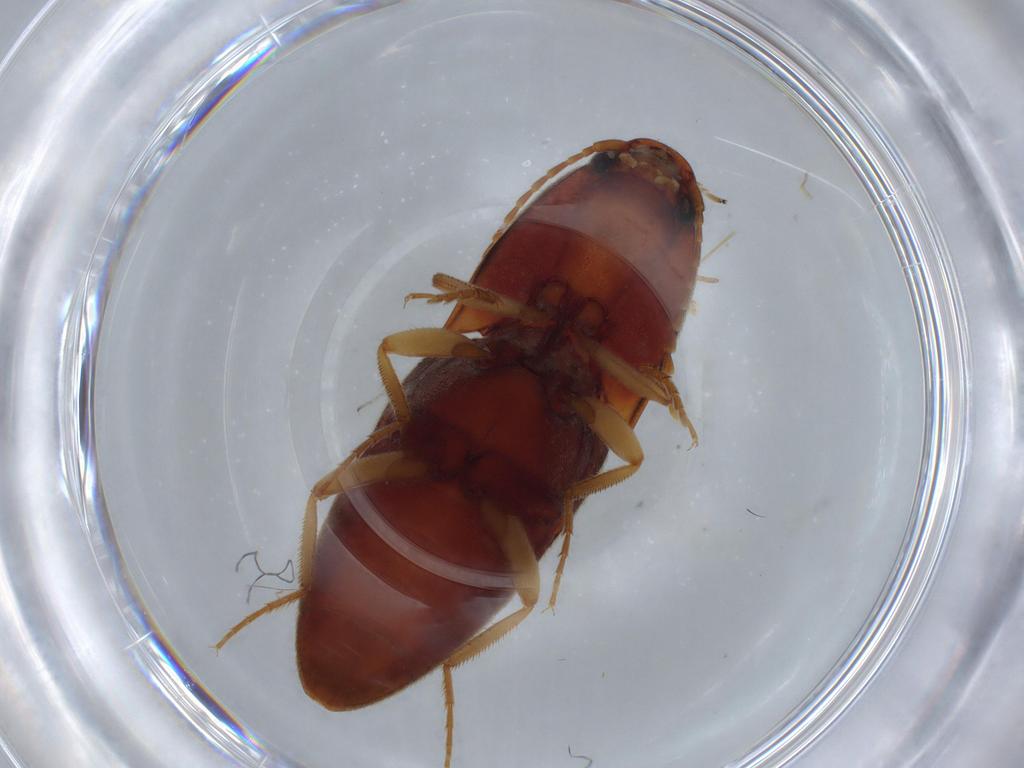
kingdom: Animalia
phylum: Arthropoda
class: Insecta
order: Coleoptera
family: Elateridae
